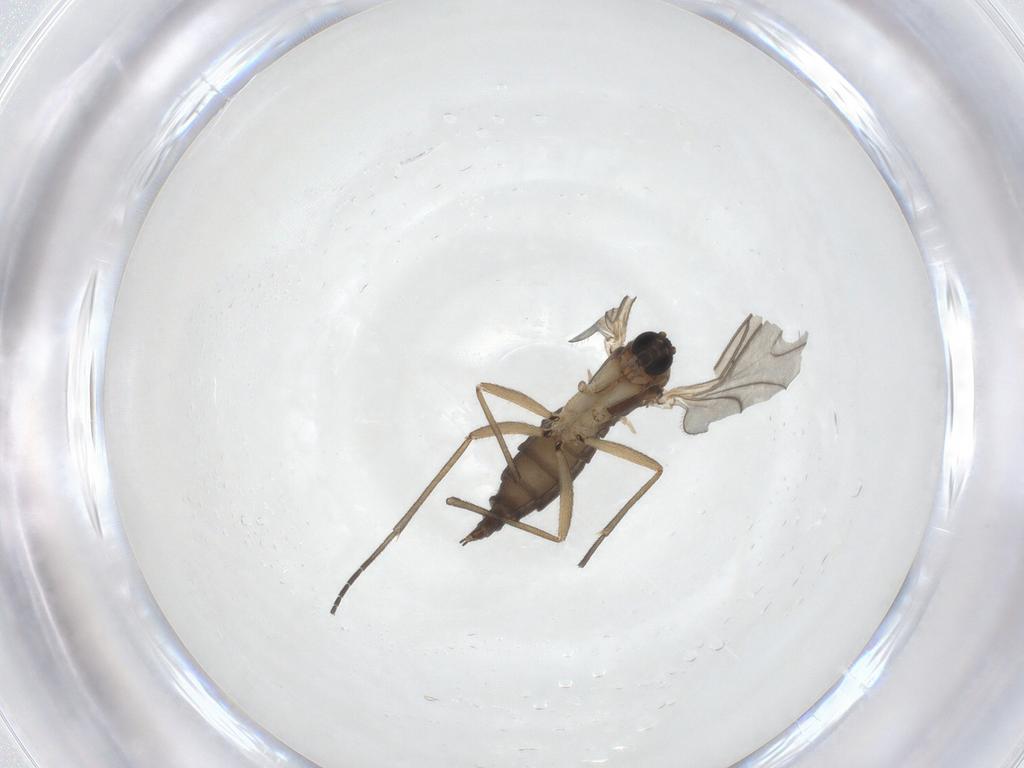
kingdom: Animalia
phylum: Arthropoda
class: Insecta
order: Diptera
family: Sciaridae
